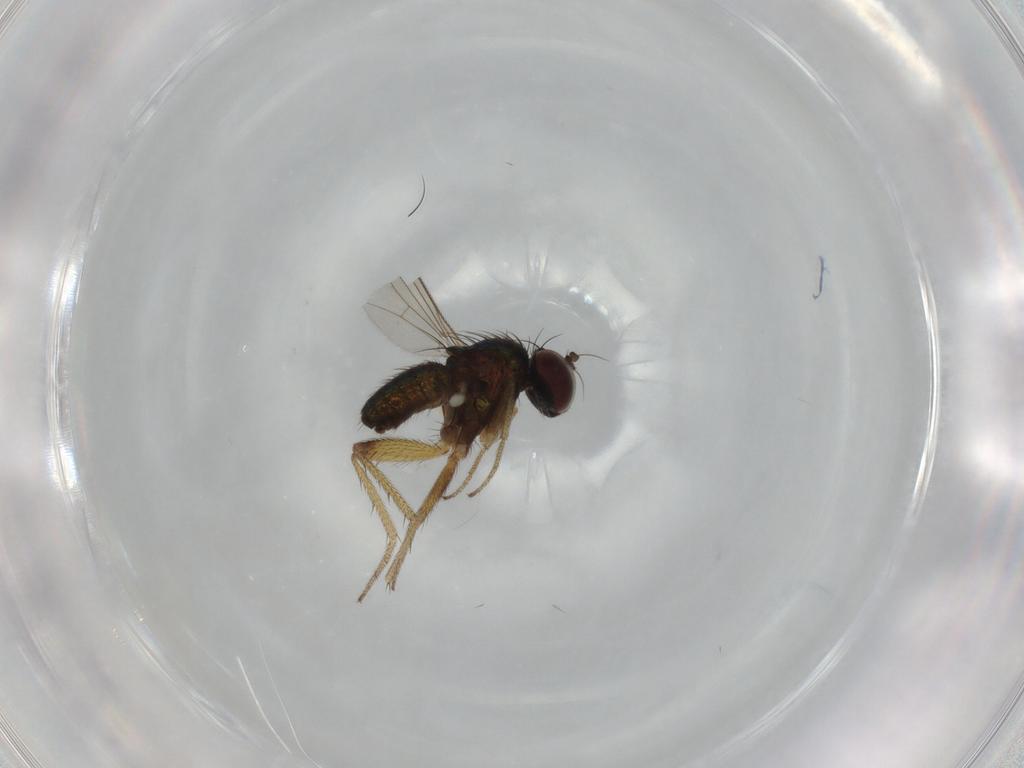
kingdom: Animalia
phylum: Arthropoda
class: Insecta
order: Diptera
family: Dolichopodidae
